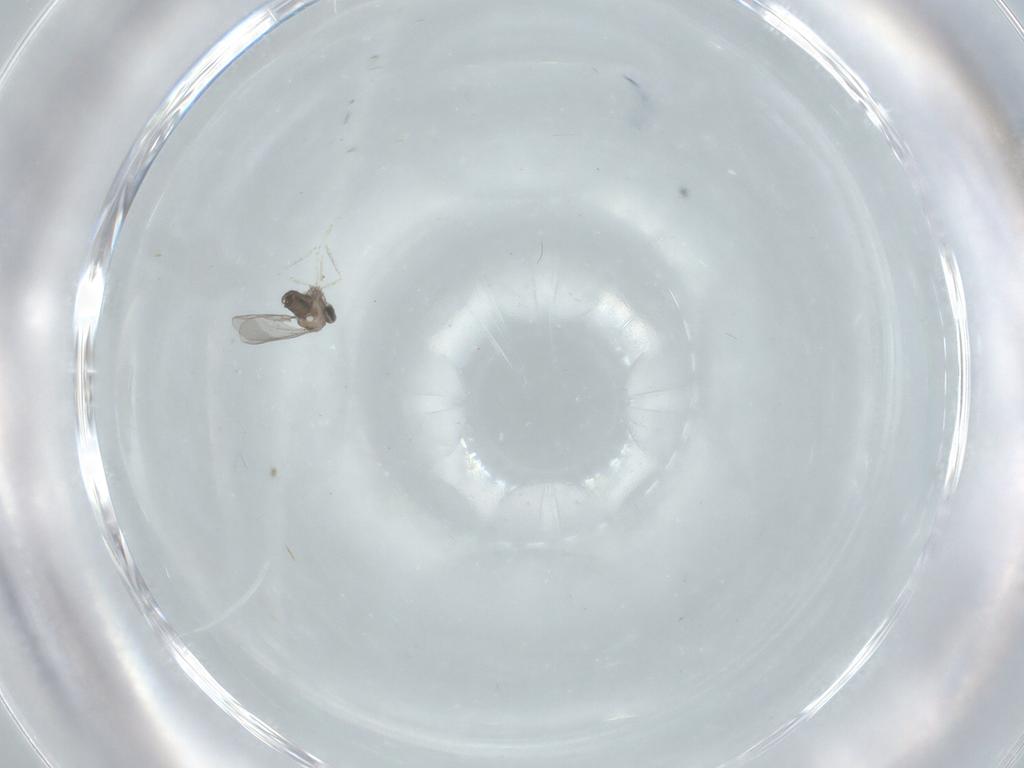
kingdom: Animalia
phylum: Arthropoda
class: Insecta
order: Diptera
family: Cecidomyiidae
